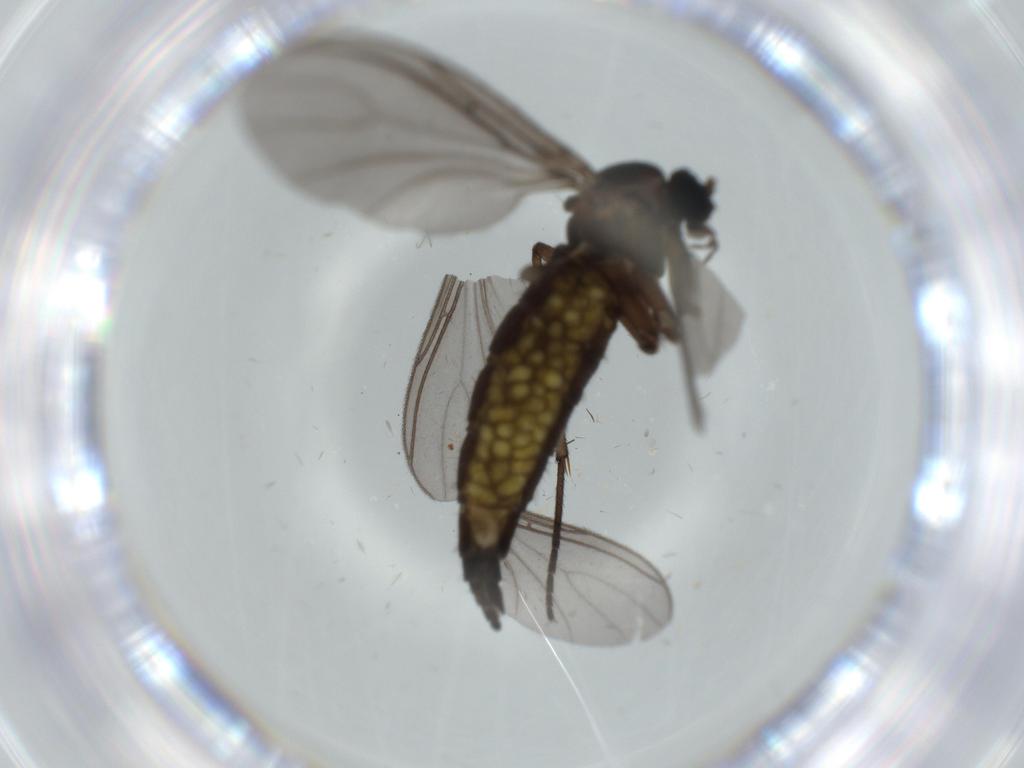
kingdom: Animalia
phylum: Arthropoda
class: Insecta
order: Diptera
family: Sciaridae
